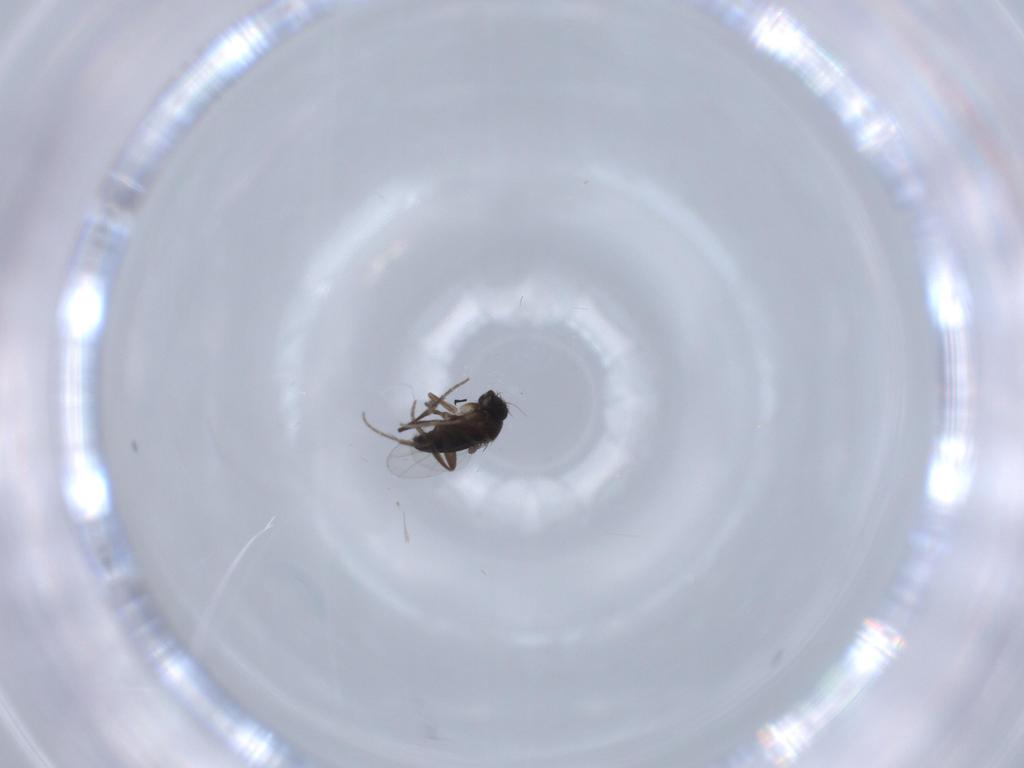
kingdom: Animalia
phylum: Arthropoda
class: Insecta
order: Diptera
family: Phoridae
